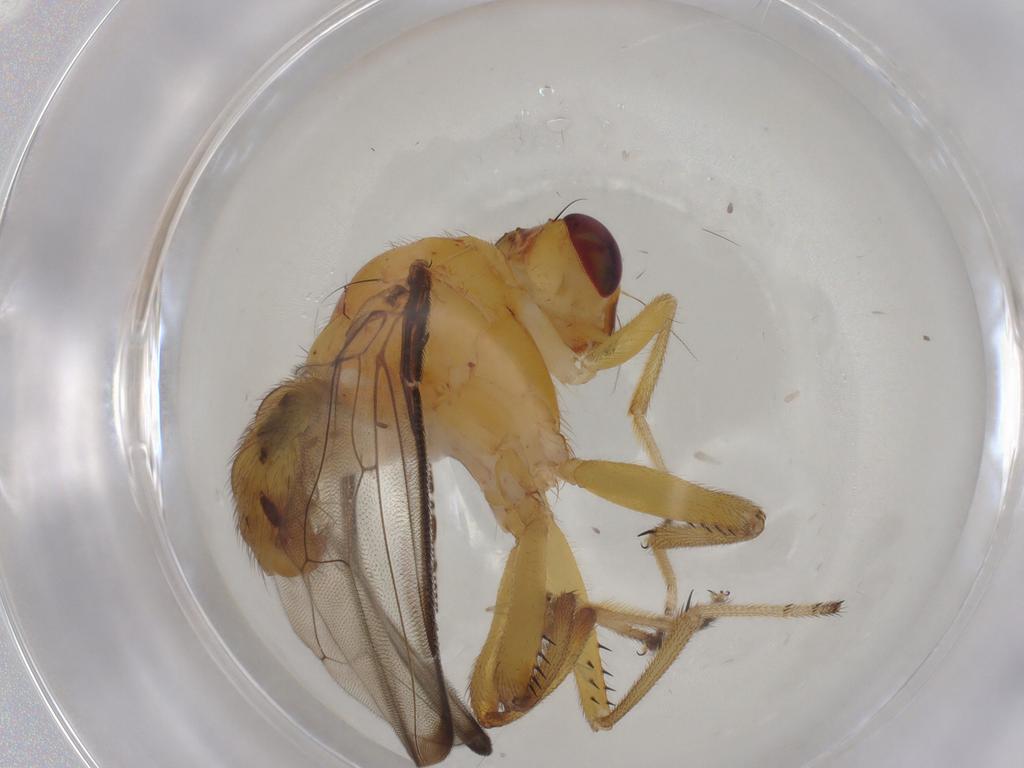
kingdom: Animalia
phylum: Arthropoda
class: Insecta
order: Diptera
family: Richardiidae
